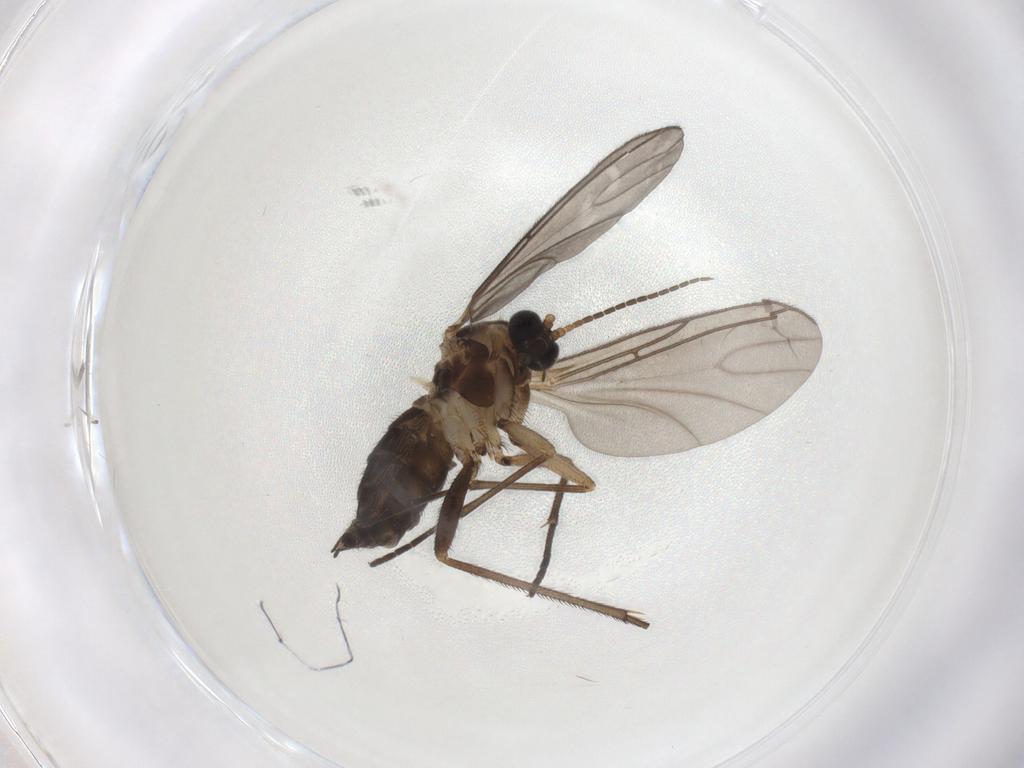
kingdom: Animalia
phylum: Arthropoda
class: Insecta
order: Diptera
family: Sciaridae
